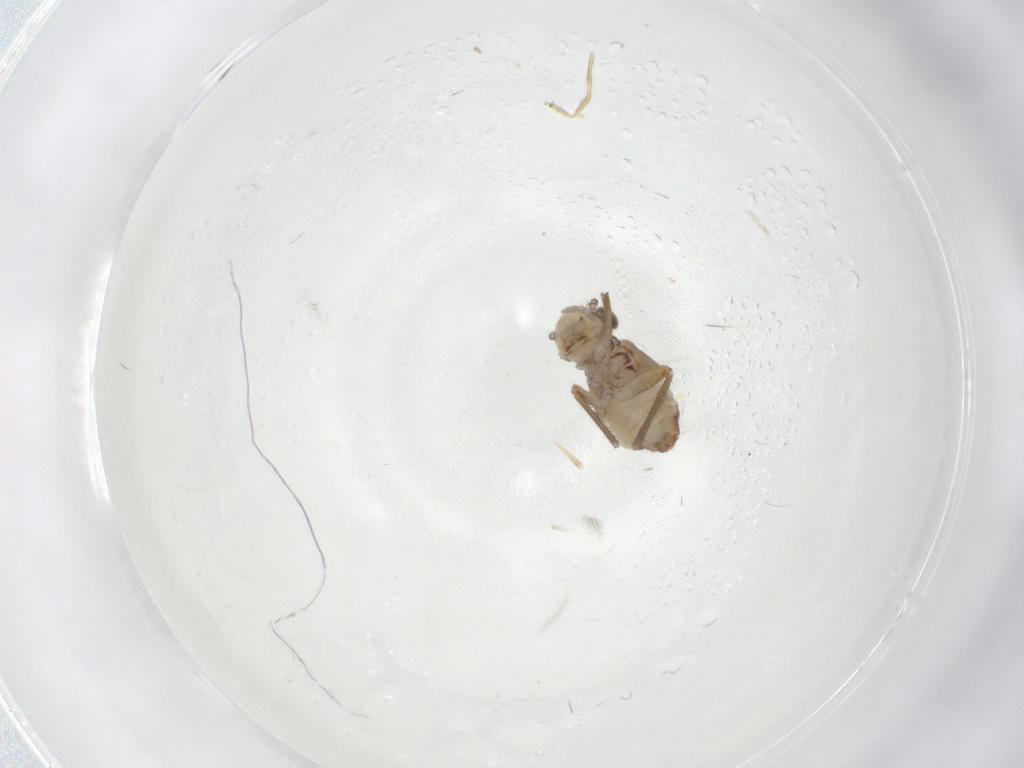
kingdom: Animalia
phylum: Arthropoda
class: Insecta
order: Psocodea
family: Mesopsocidae
